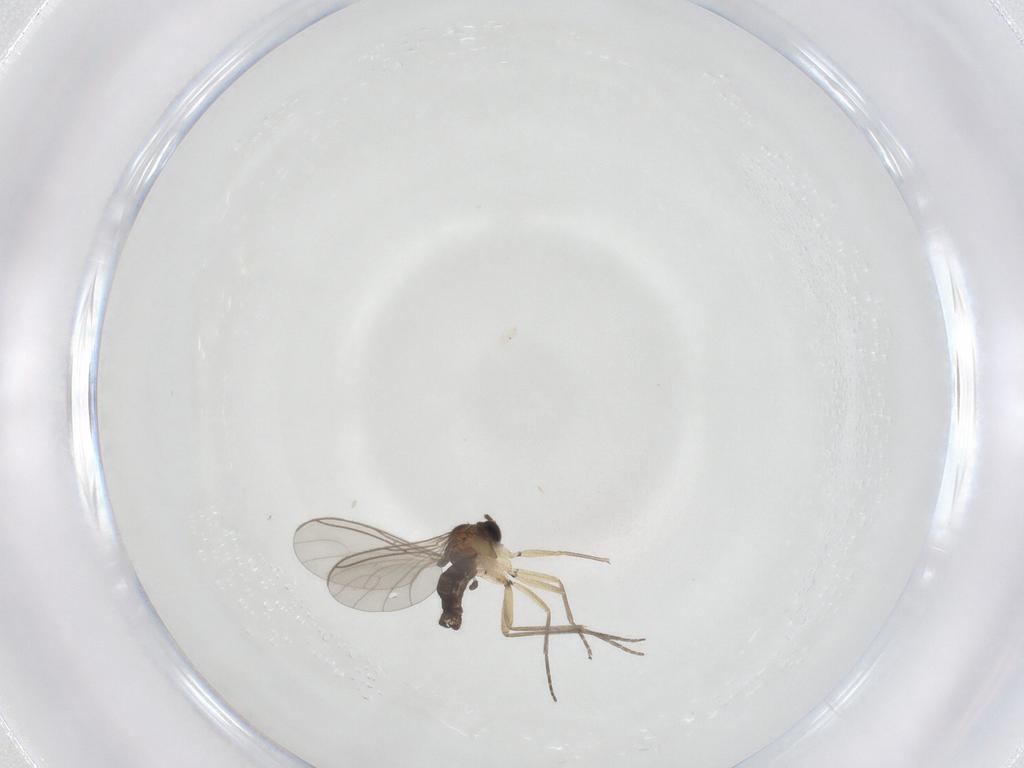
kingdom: Animalia
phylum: Arthropoda
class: Insecta
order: Diptera
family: Sciaridae
